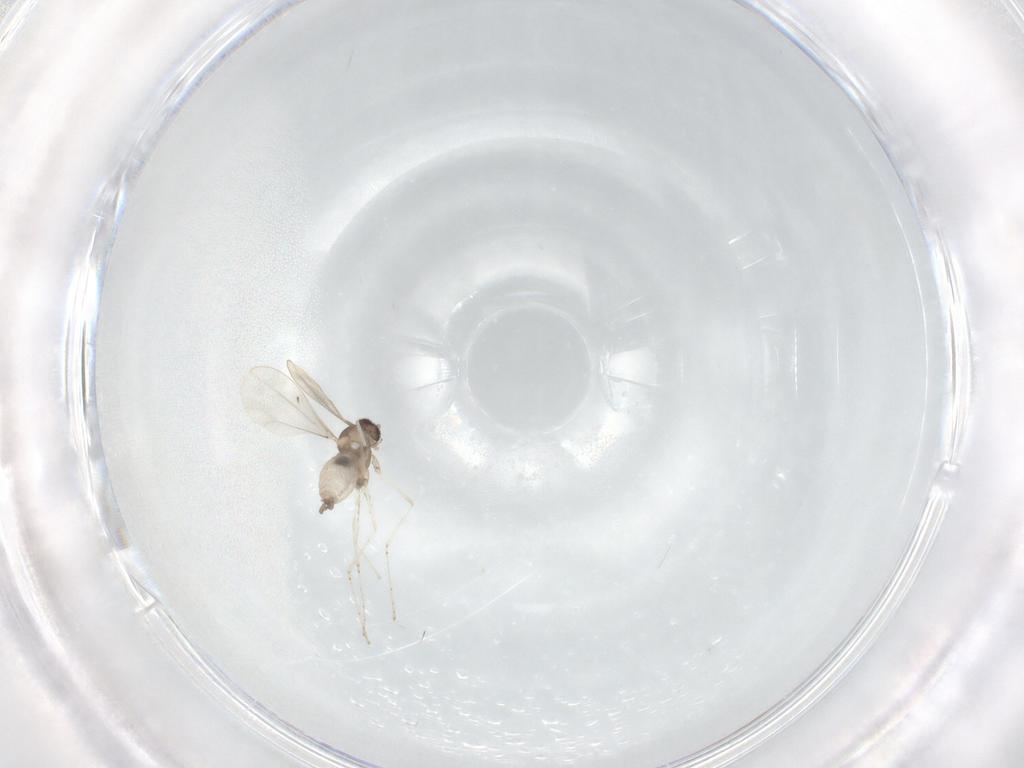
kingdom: Animalia
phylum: Arthropoda
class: Insecta
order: Diptera
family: Cecidomyiidae
